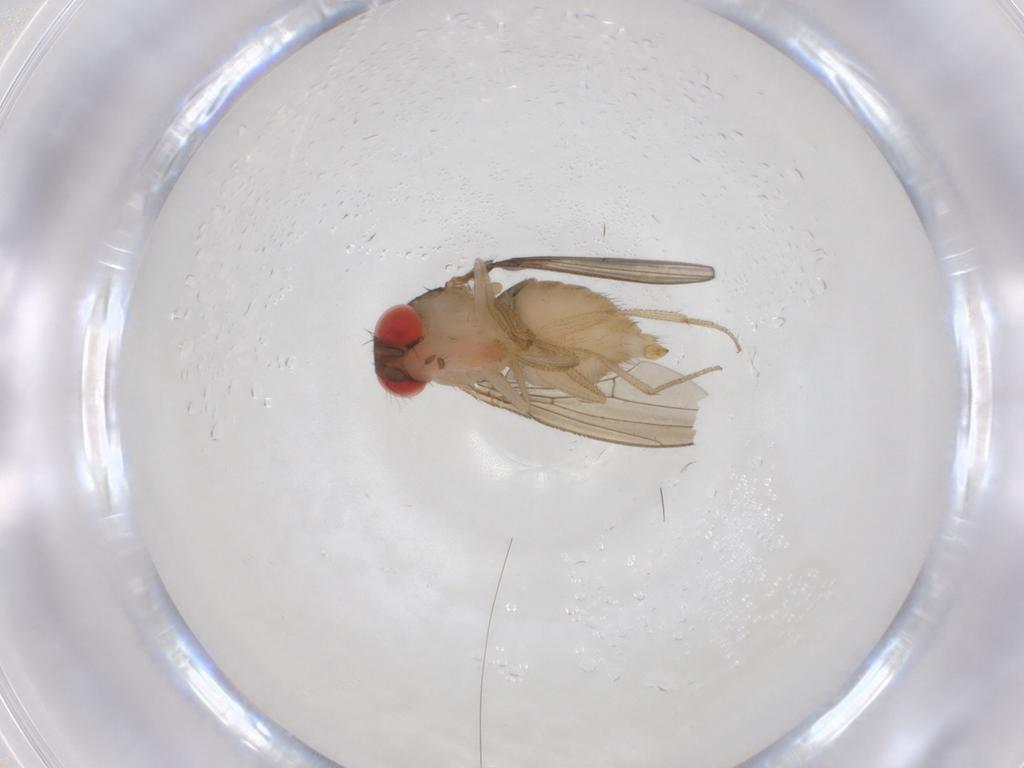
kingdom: Animalia
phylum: Arthropoda
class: Insecta
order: Diptera
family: Drosophilidae
